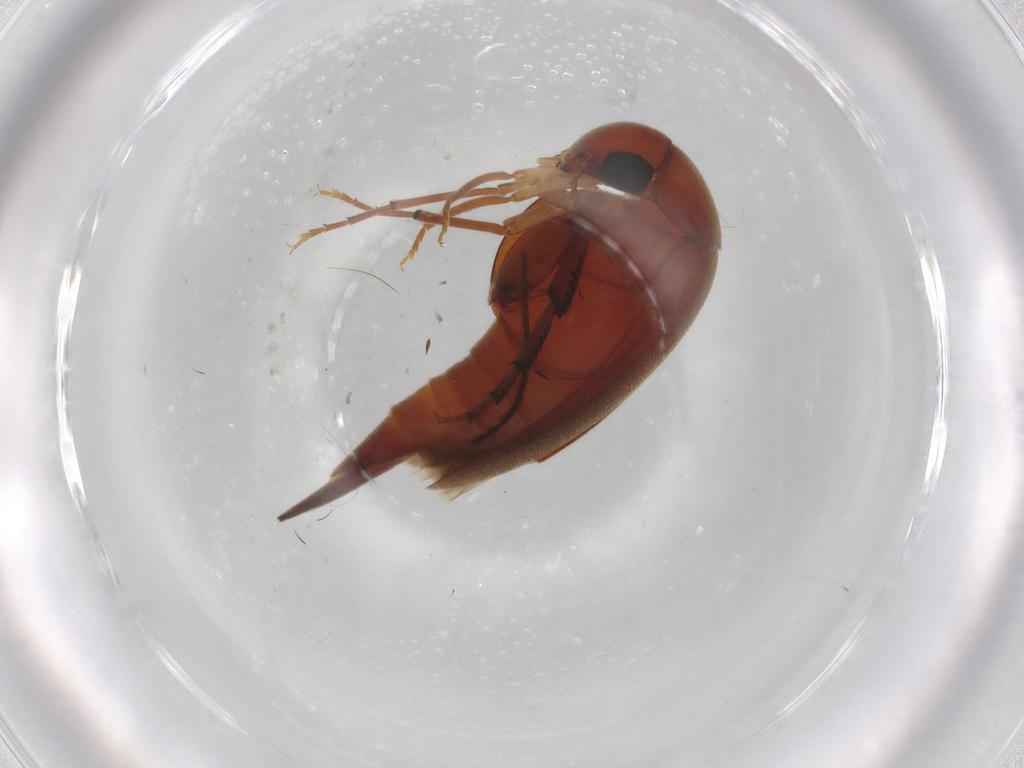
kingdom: Animalia
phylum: Arthropoda
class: Insecta
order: Coleoptera
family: Mordellidae
